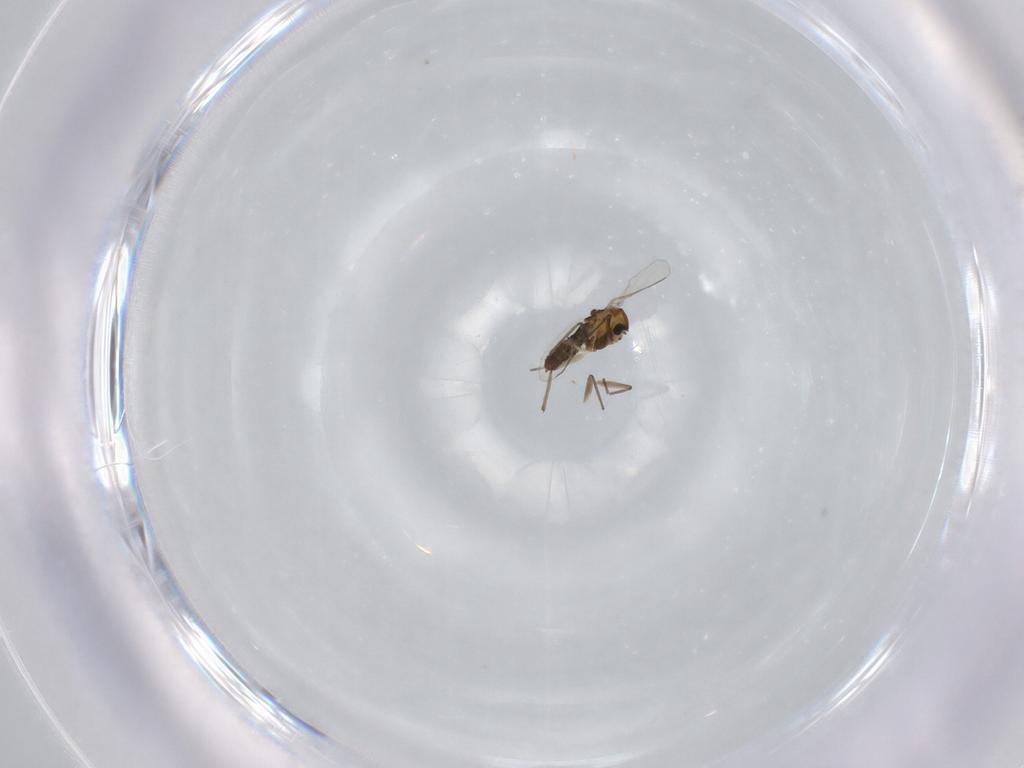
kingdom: Animalia
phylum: Arthropoda
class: Insecta
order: Diptera
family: Chironomidae
